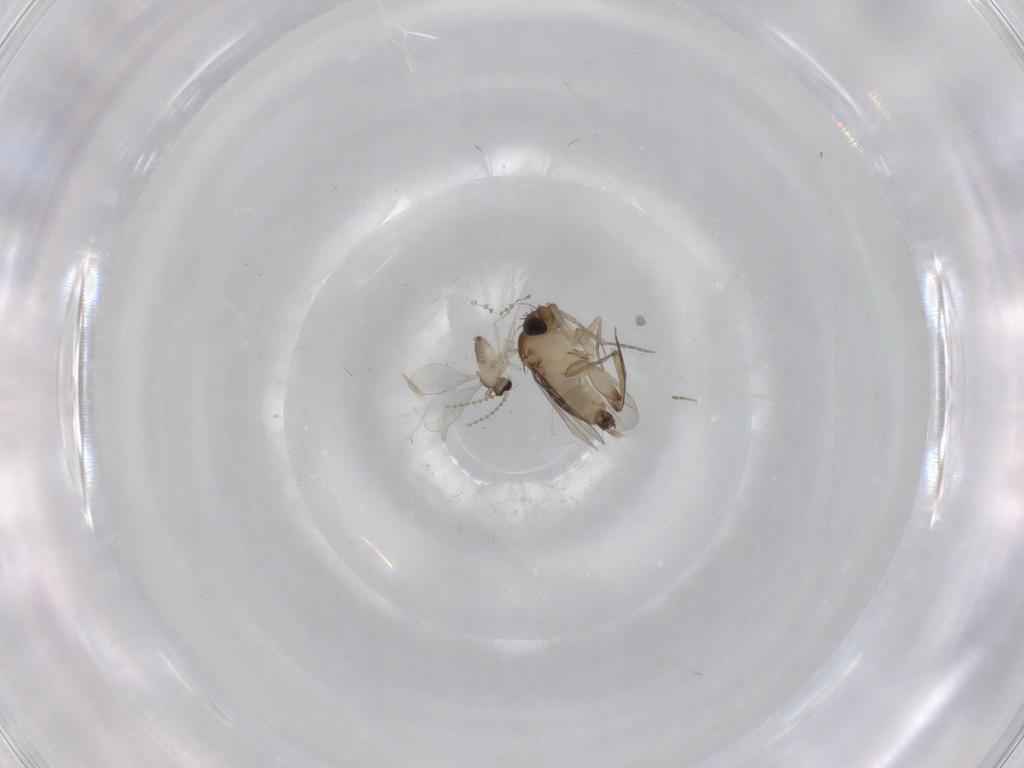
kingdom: Animalia
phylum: Arthropoda
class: Insecta
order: Diptera
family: Phoridae
